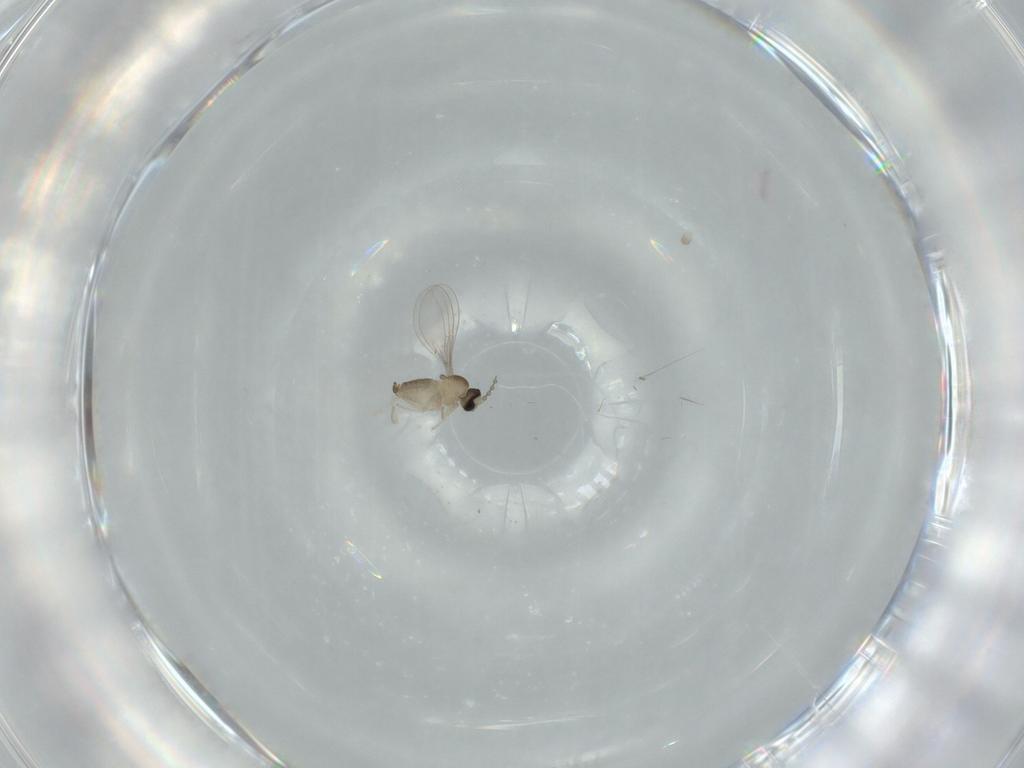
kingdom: Animalia
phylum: Arthropoda
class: Insecta
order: Diptera
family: Cecidomyiidae
